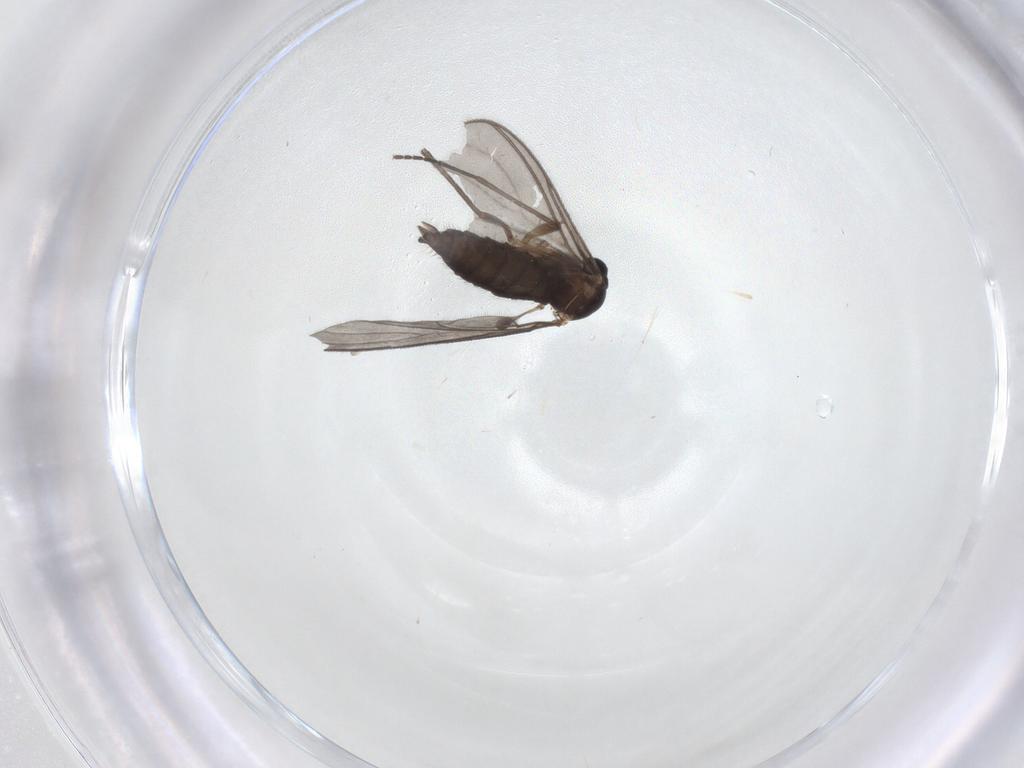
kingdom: Animalia
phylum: Arthropoda
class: Insecta
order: Diptera
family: Sciaridae
